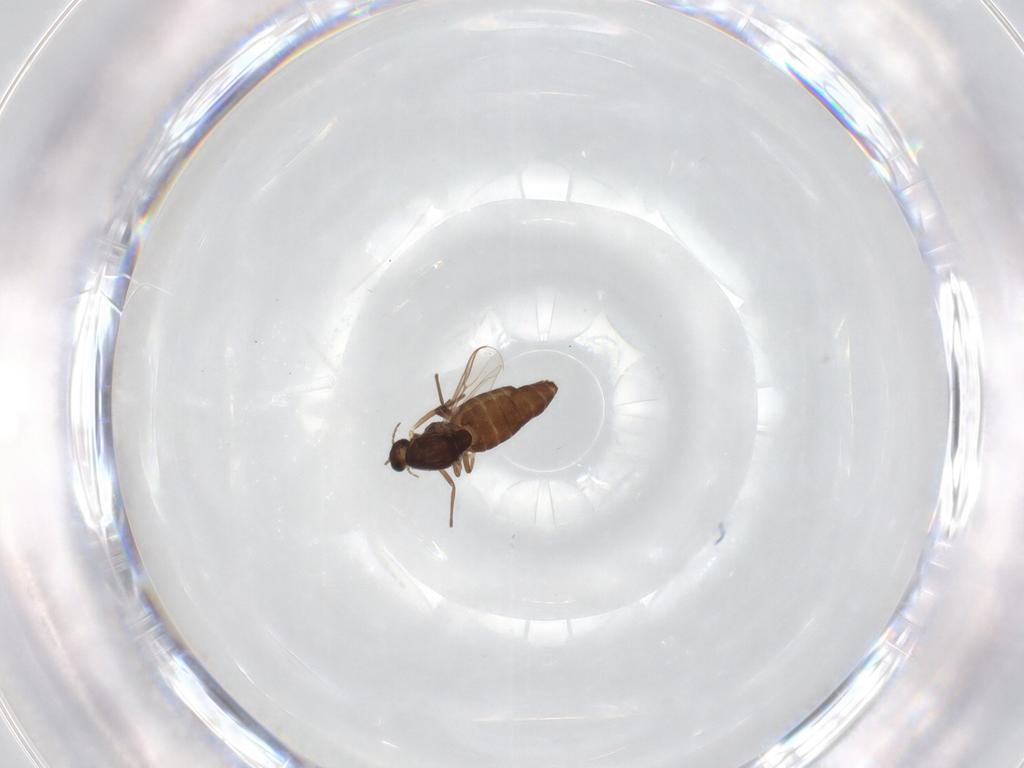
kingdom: Animalia
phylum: Arthropoda
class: Insecta
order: Diptera
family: Chironomidae
